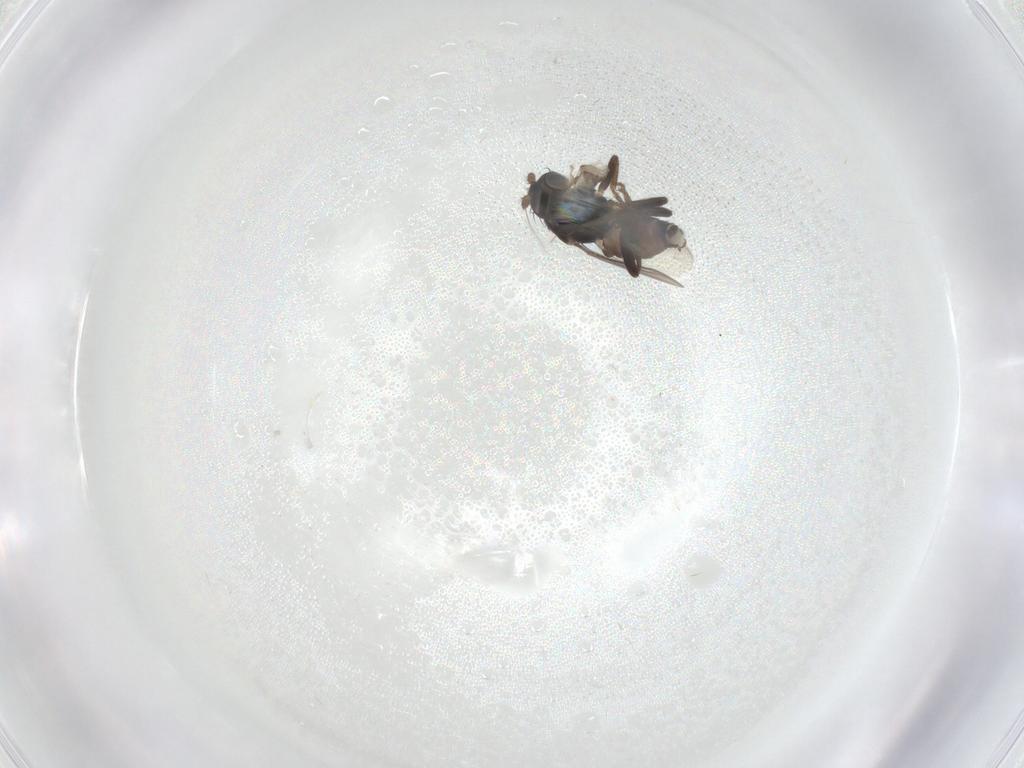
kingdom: Animalia
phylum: Arthropoda
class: Insecta
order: Diptera
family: Sphaeroceridae
